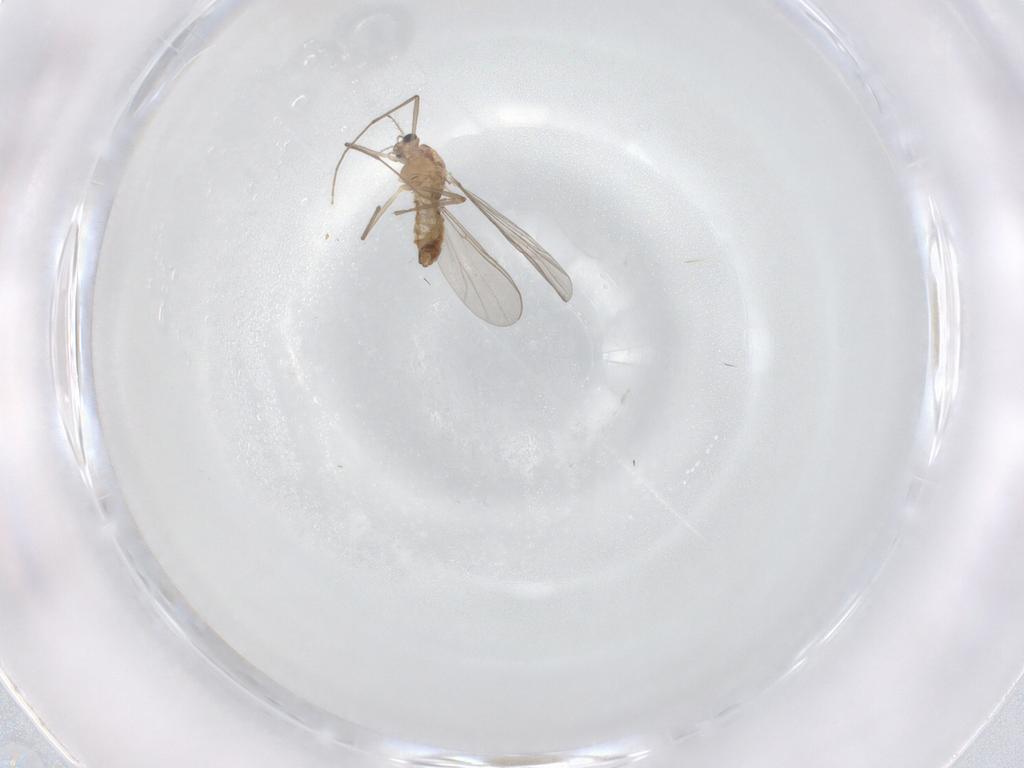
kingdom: Animalia
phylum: Arthropoda
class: Insecta
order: Diptera
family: Chironomidae
